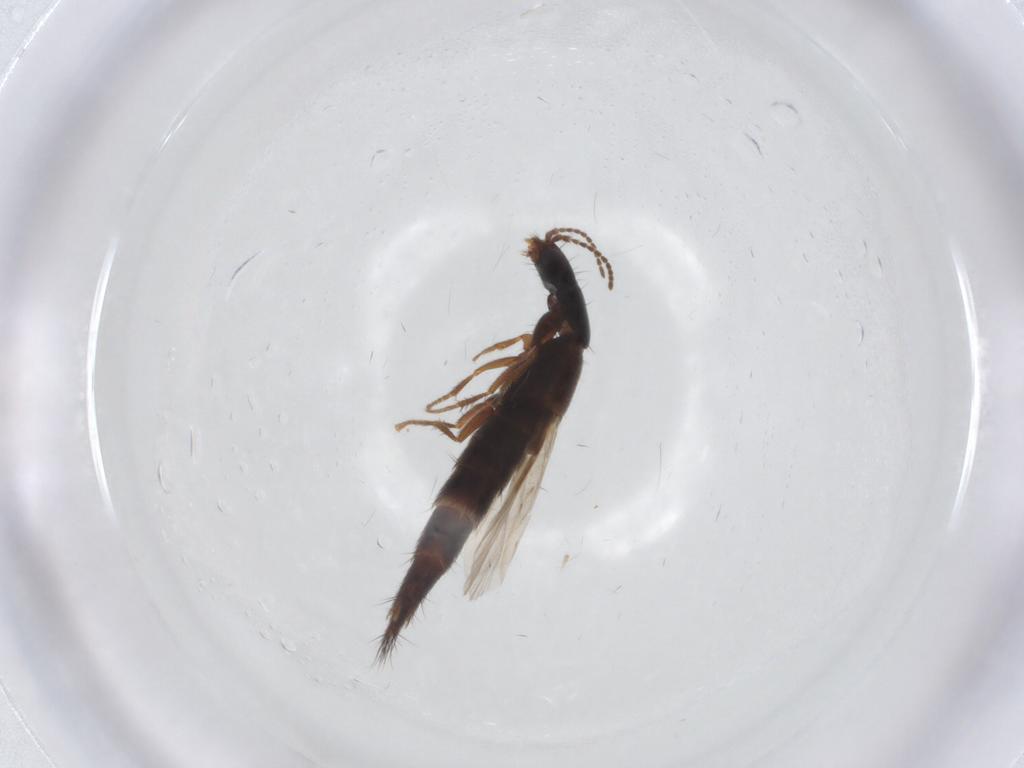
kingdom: Animalia
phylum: Arthropoda
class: Insecta
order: Coleoptera
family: Staphylinidae
